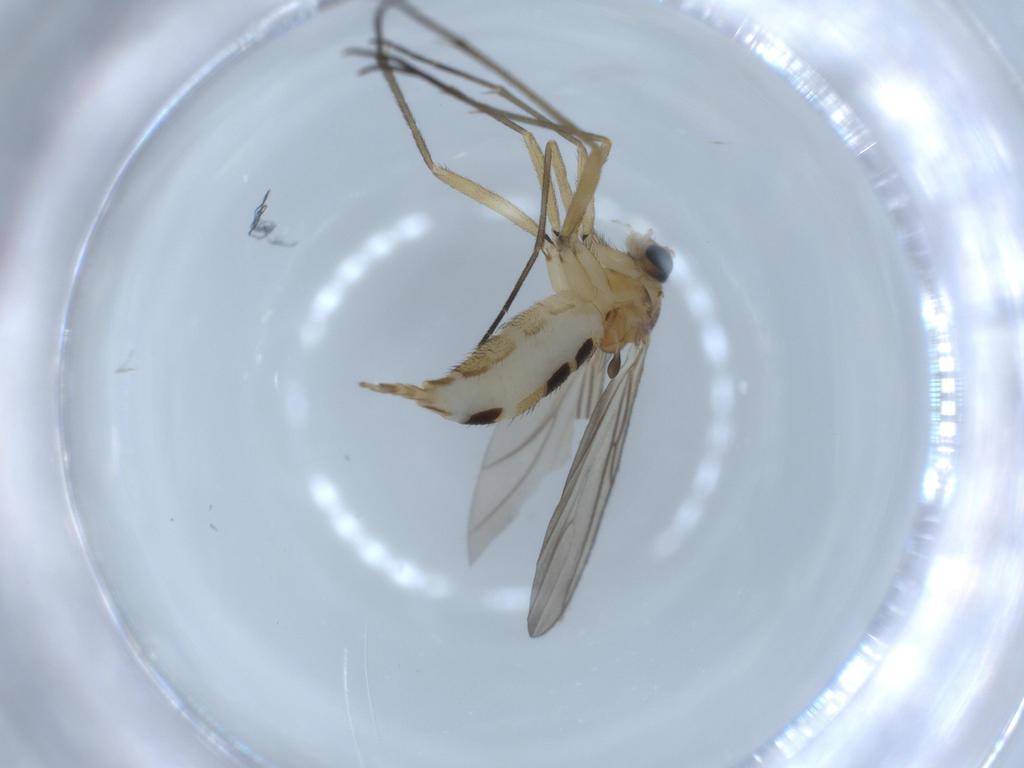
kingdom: Animalia
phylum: Arthropoda
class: Insecta
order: Diptera
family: Sciaridae
